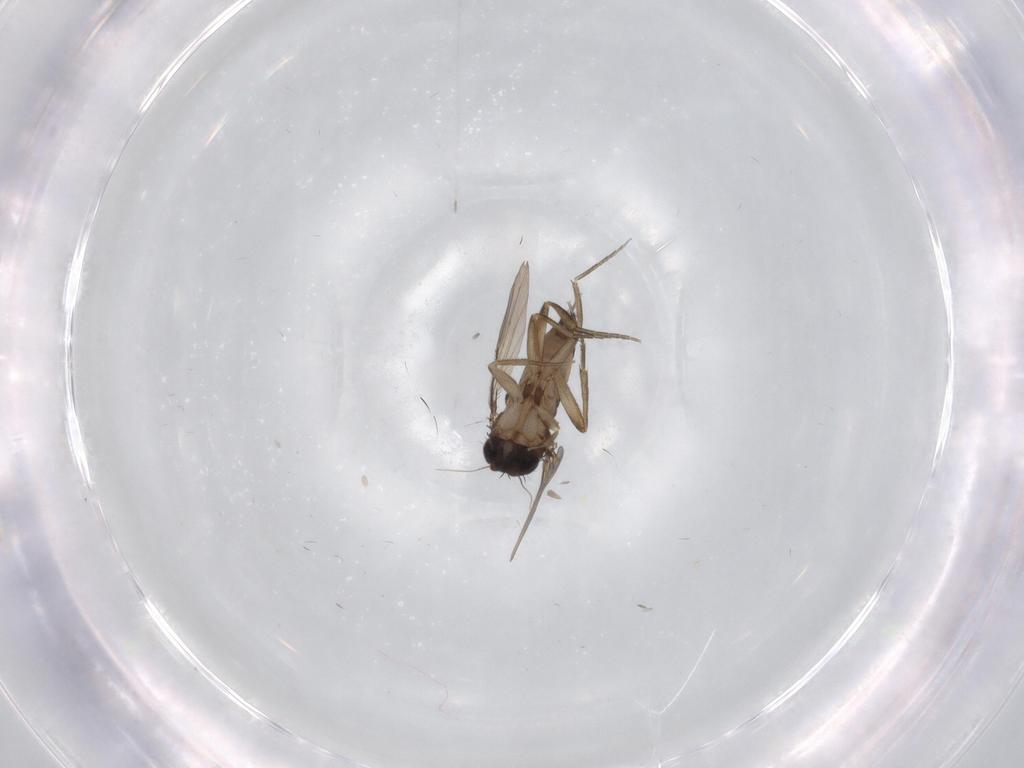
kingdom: Animalia
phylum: Arthropoda
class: Insecta
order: Diptera
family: Phoridae
